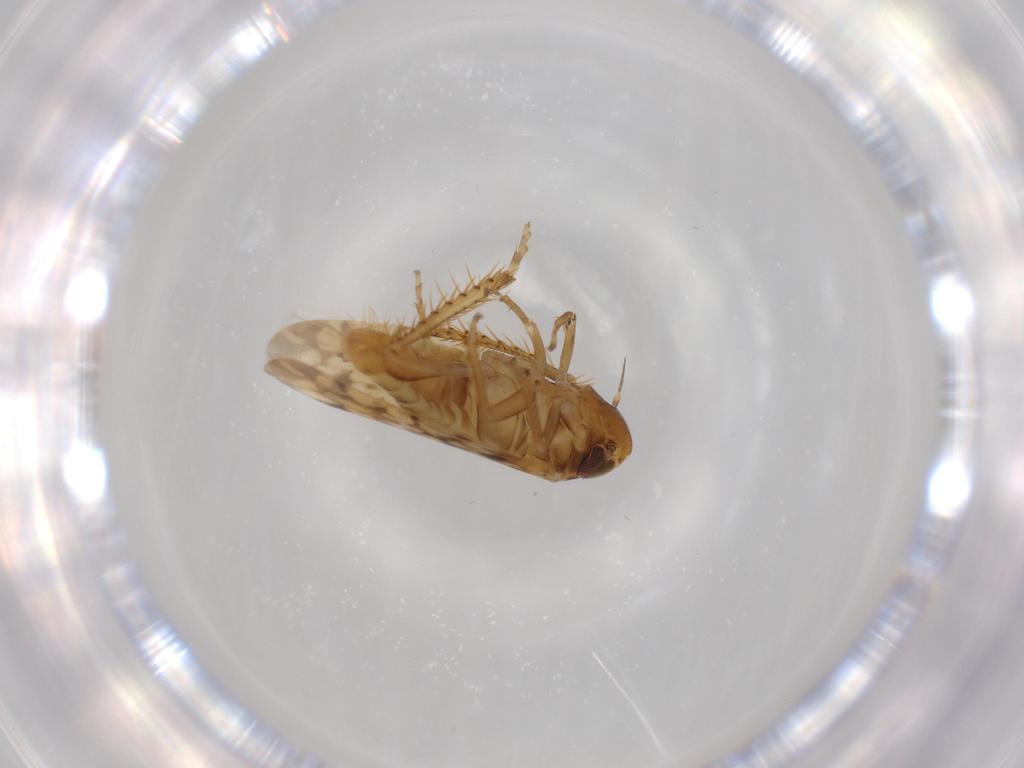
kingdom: Animalia
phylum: Arthropoda
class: Insecta
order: Hemiptera
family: Cicadellidae
